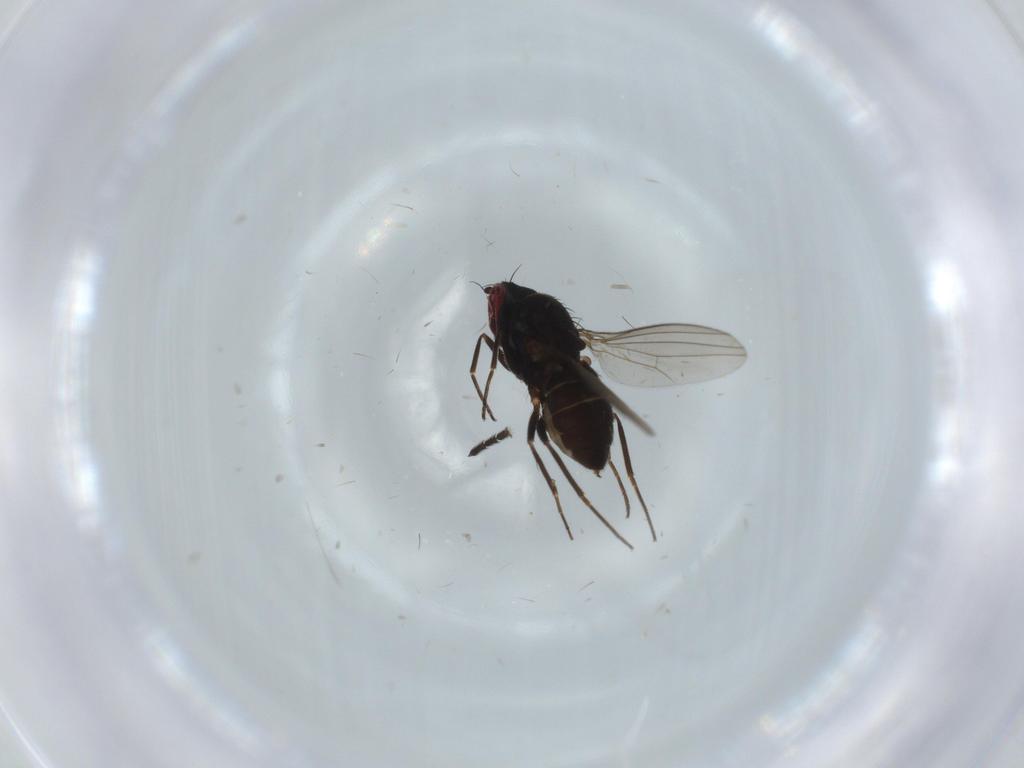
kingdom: Animalia
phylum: Arthropoda
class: Insecta
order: Diptera
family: Dolichopodidae
